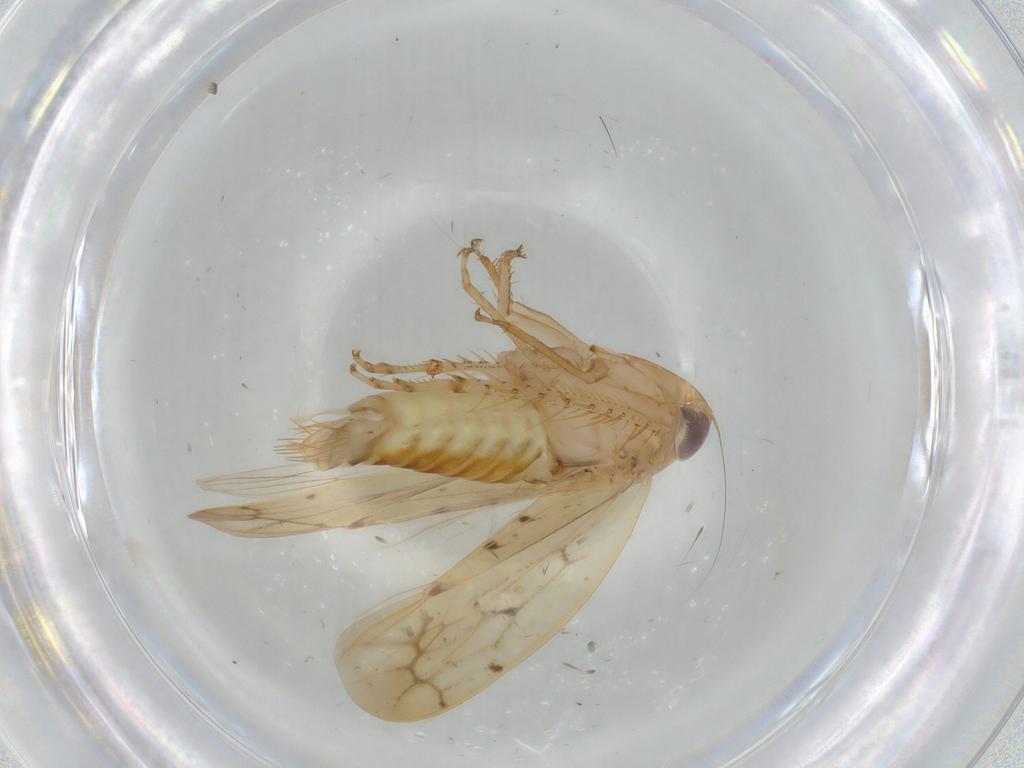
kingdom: Animalia
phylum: Arthropoda
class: Insecta
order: Hemiptera
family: Cicadellidae
